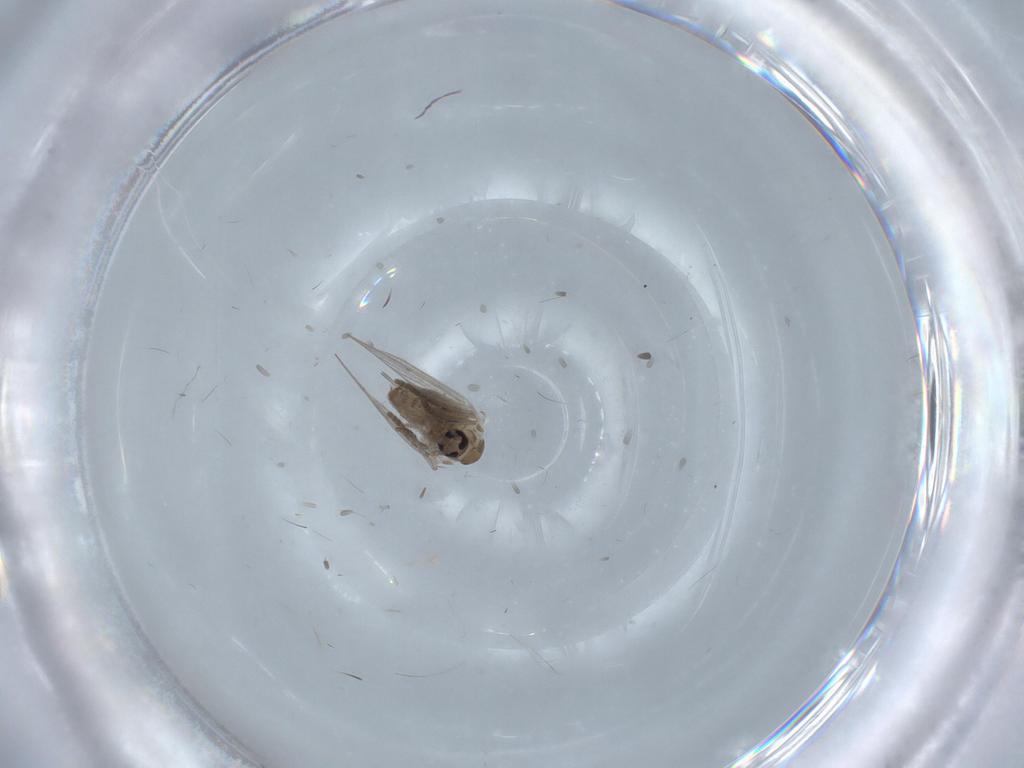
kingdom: Animalia
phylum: Arthropoda
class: Insecta
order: Diptera
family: Psychodidae
